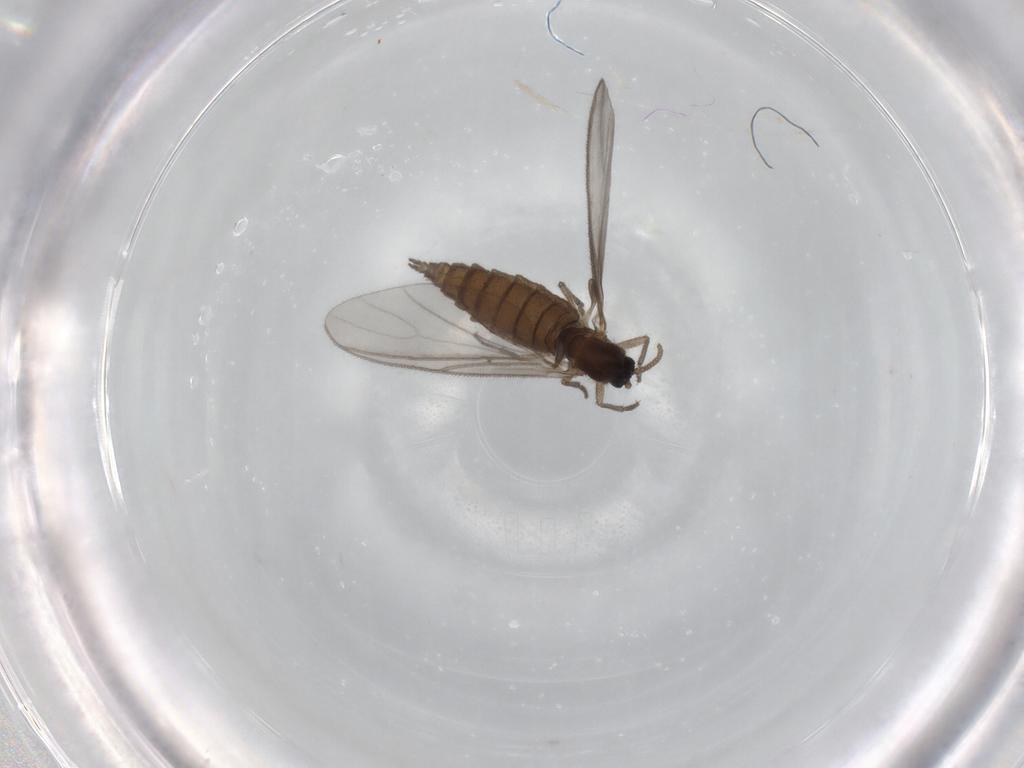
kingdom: Animalia
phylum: Arthropoda
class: Insecta
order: Diptera
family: Sciaridae
